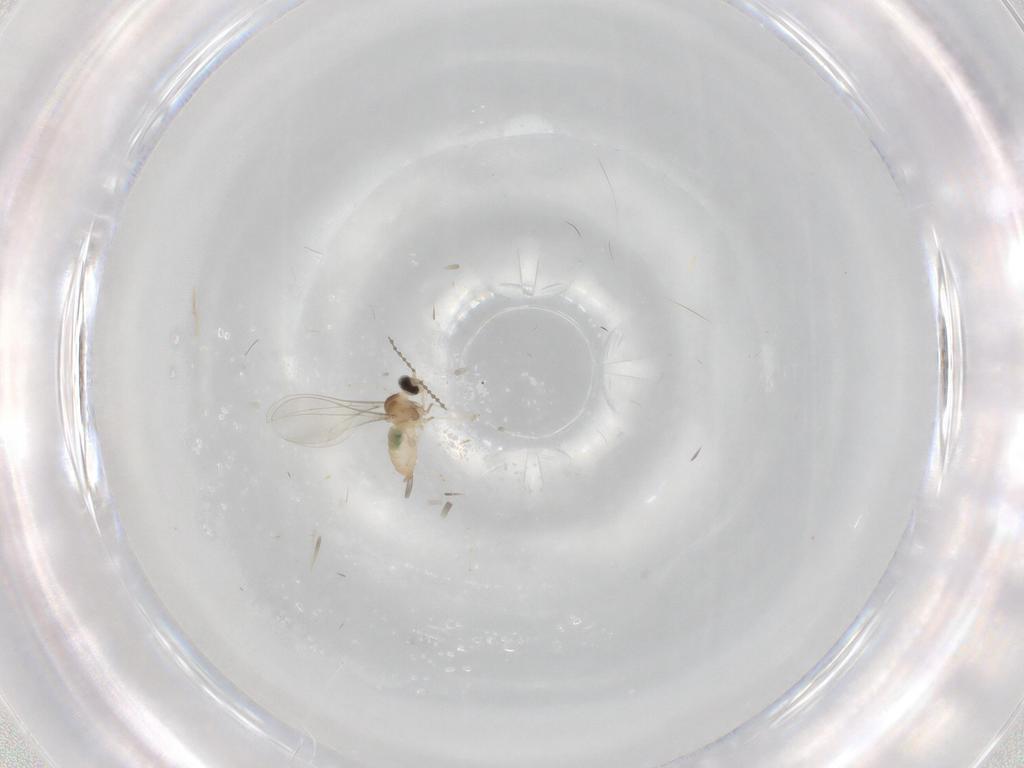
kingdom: Animalia
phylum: Arthropoda
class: Insecta
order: Diptera
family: Cecidomyiidae
